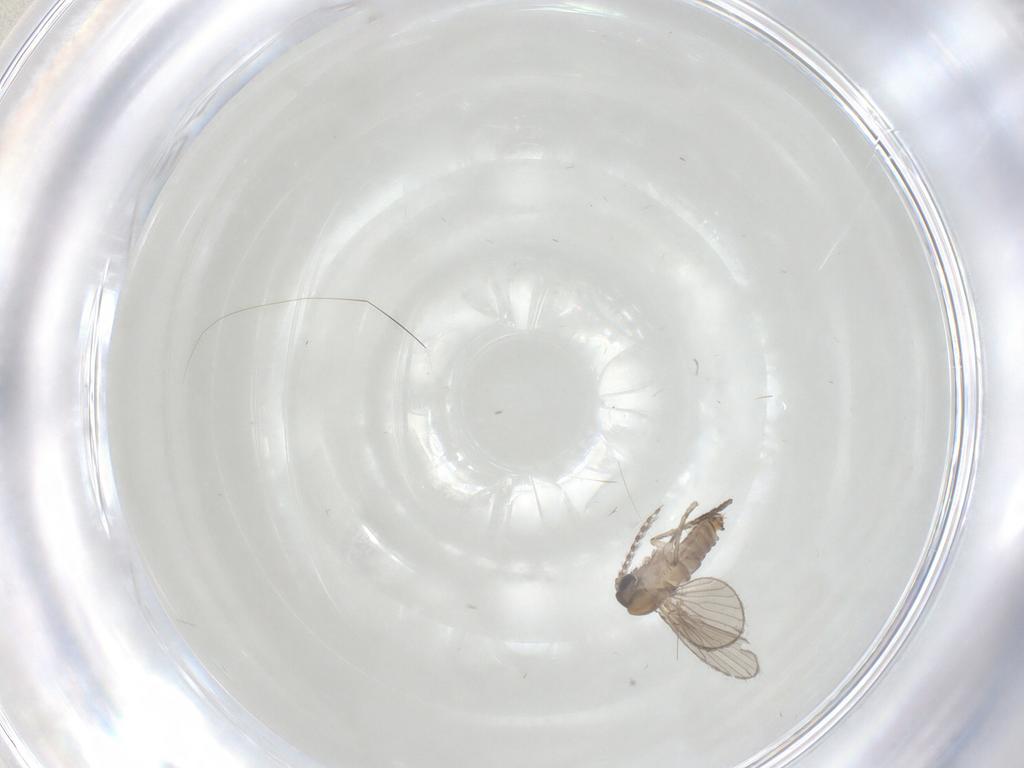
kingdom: Animalia
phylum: Arthropoda
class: Insecta
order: Diptera
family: Psychodidae
